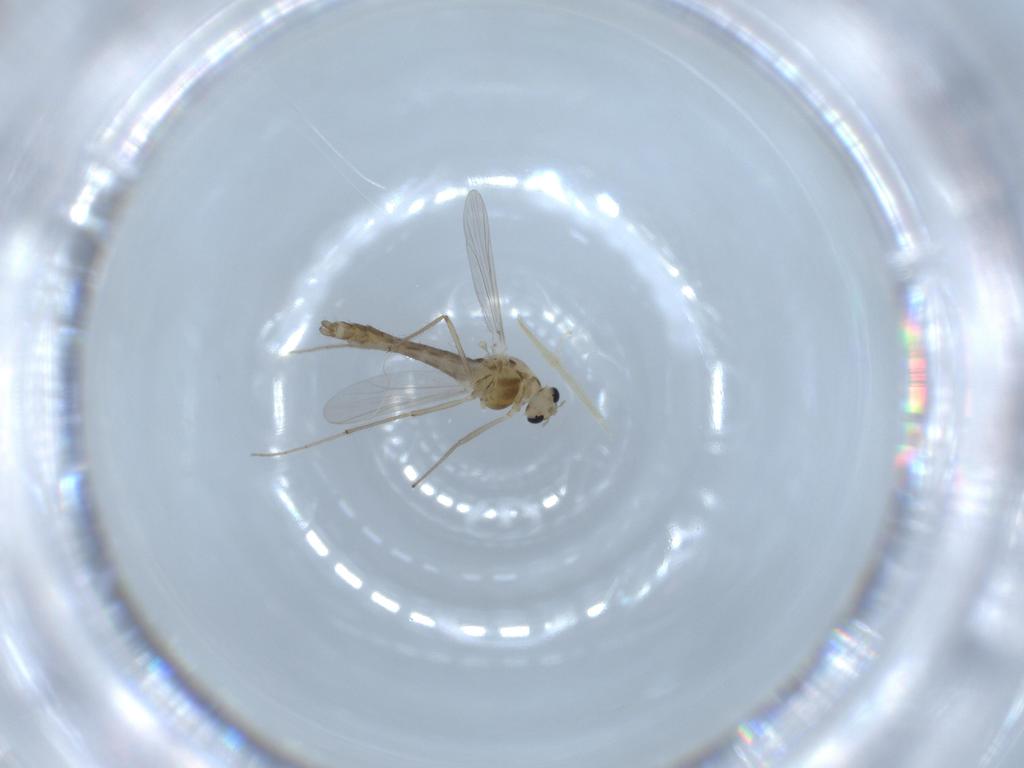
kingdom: Animalia
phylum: Arthropoda
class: Insecta
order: Diptera
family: Chironomidae
